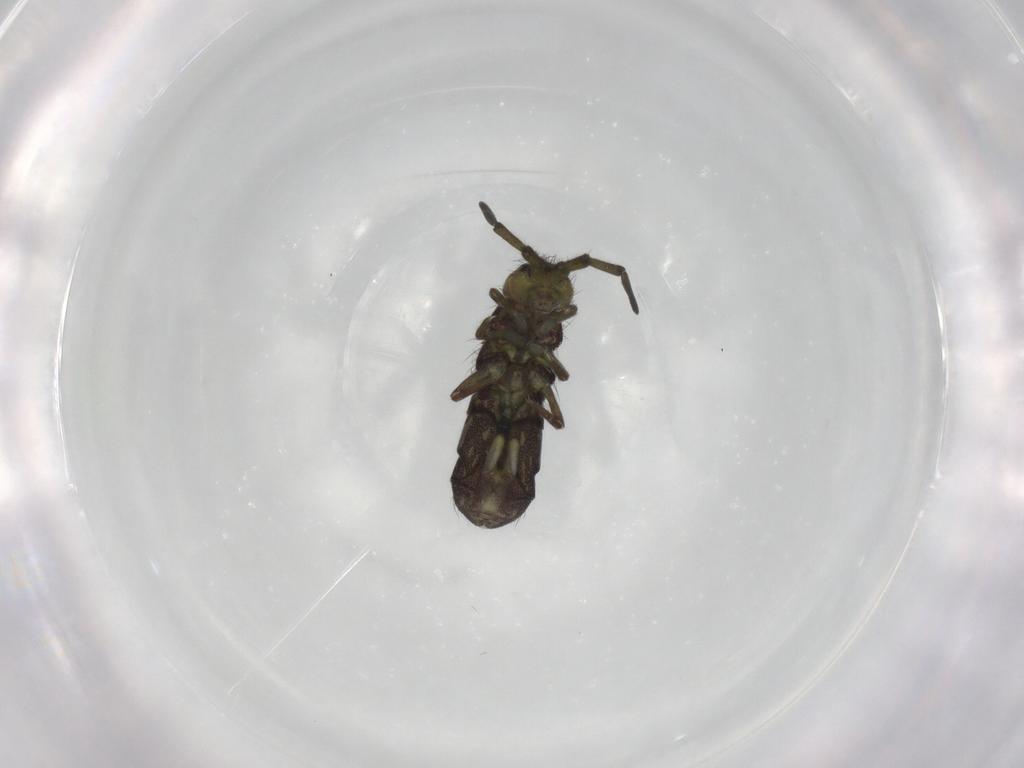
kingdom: Animalia
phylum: Arthropoda
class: Collembola
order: Entomobryomorpha
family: Isotomidae
